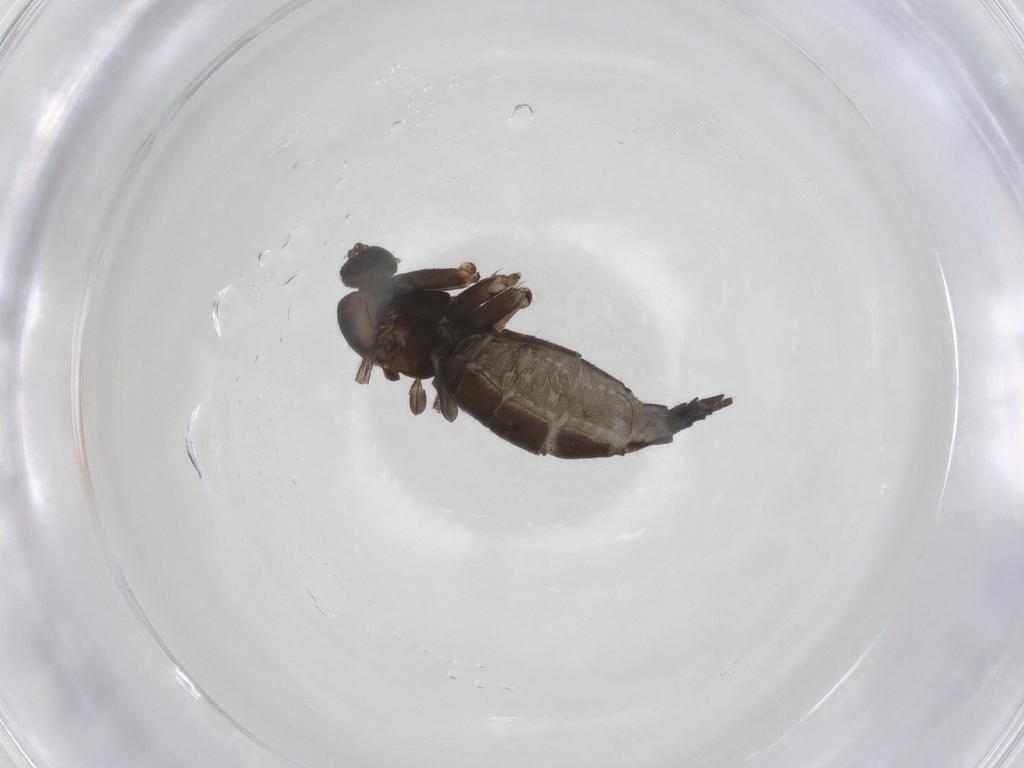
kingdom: Animalia
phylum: Arthropoda
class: Insecta
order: Diptera
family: Sciaridae
